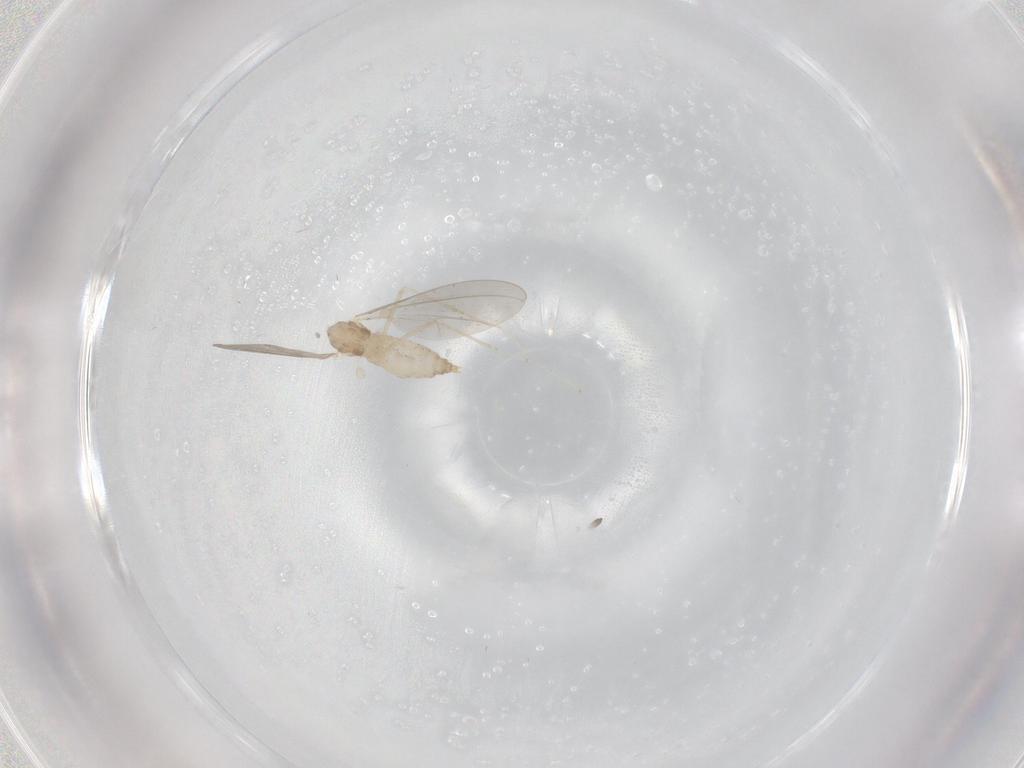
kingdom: Animalia
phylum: Arthropoda
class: Insecta
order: Diptera
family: Cecidomyiidae
